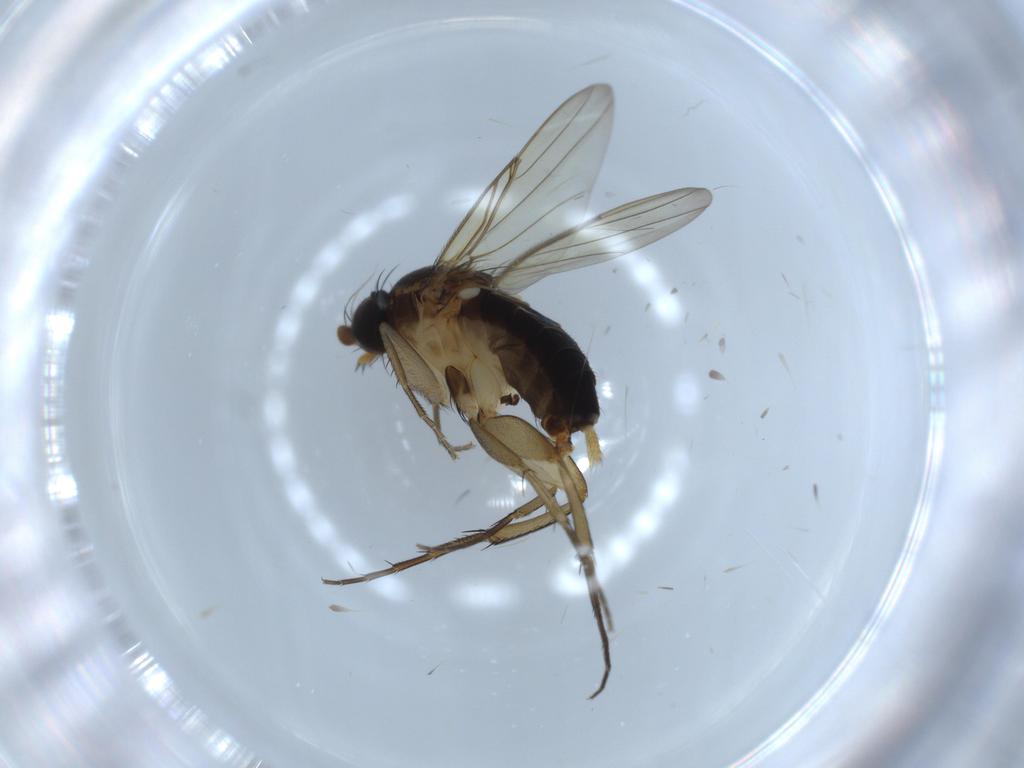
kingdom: Animalia
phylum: Arthropoda
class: Insecta
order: Diptera
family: Phoridae
